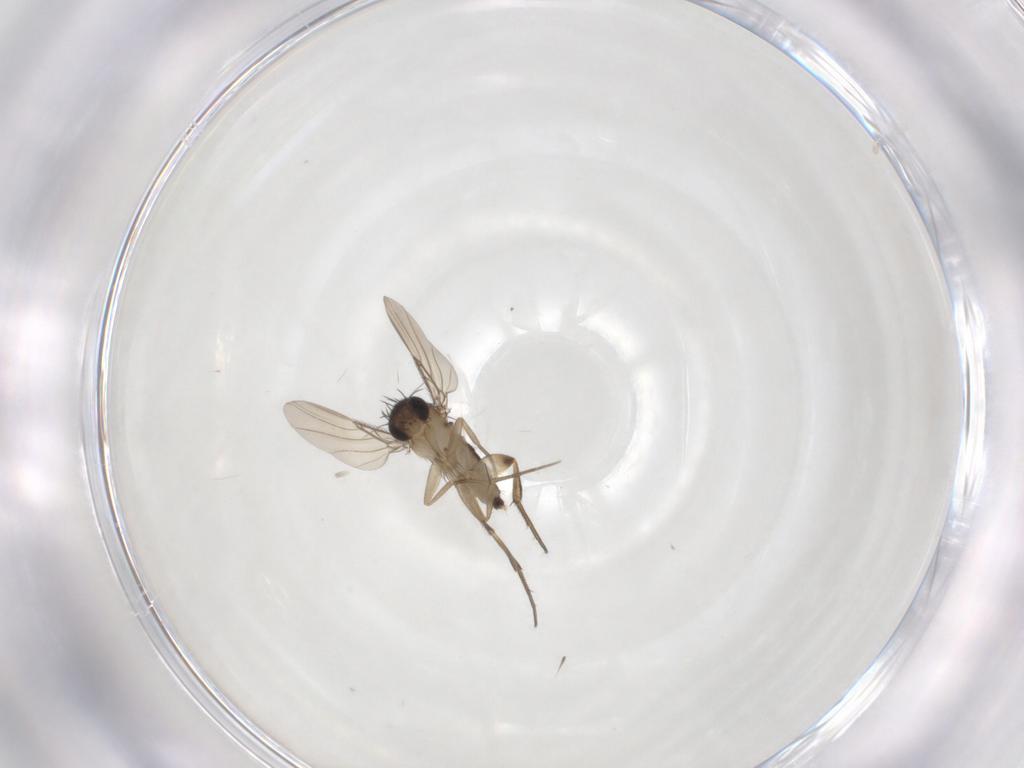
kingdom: Animalia
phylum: Arthropoda
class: Insecta
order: Diptera
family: Phoridae
